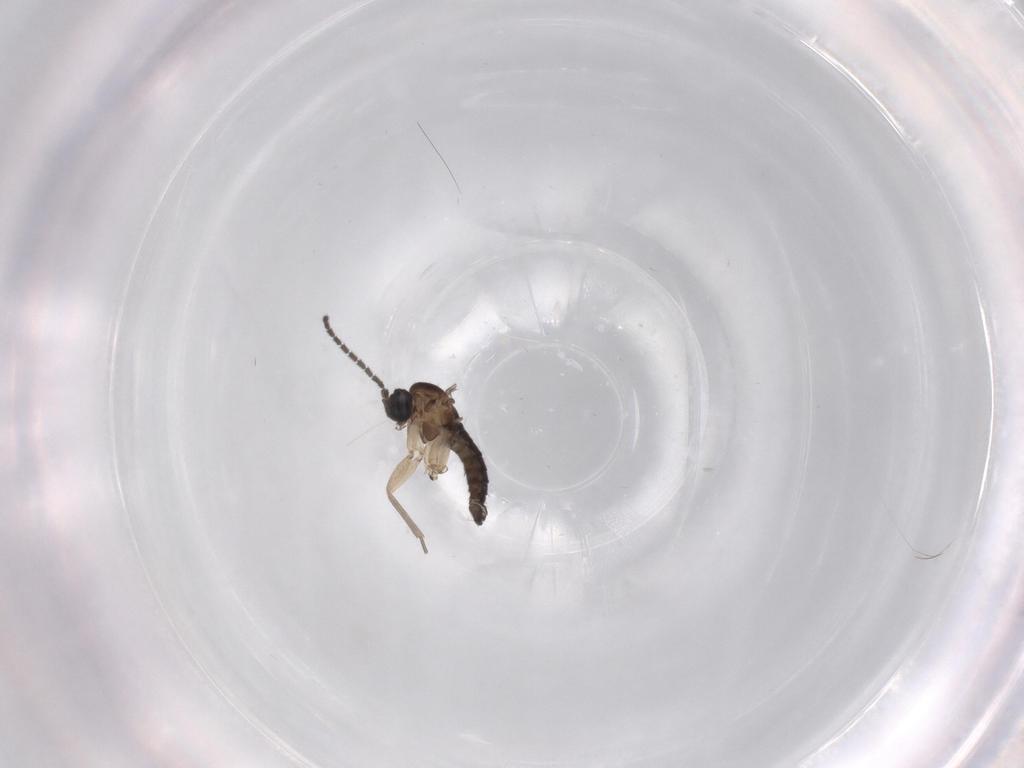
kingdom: Animalia
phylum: Arthropoda
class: Insecta
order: Diptera
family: Sciaridae
